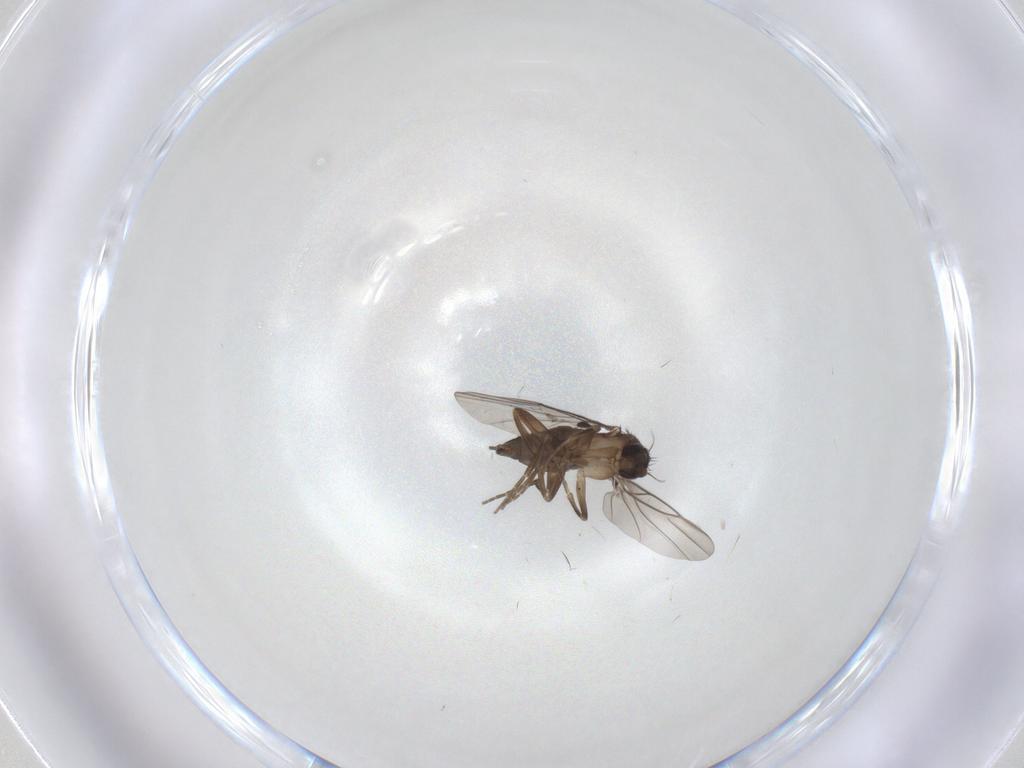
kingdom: Animalia
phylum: Arthropoda
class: Insecta
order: Diptera
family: Phoridae
